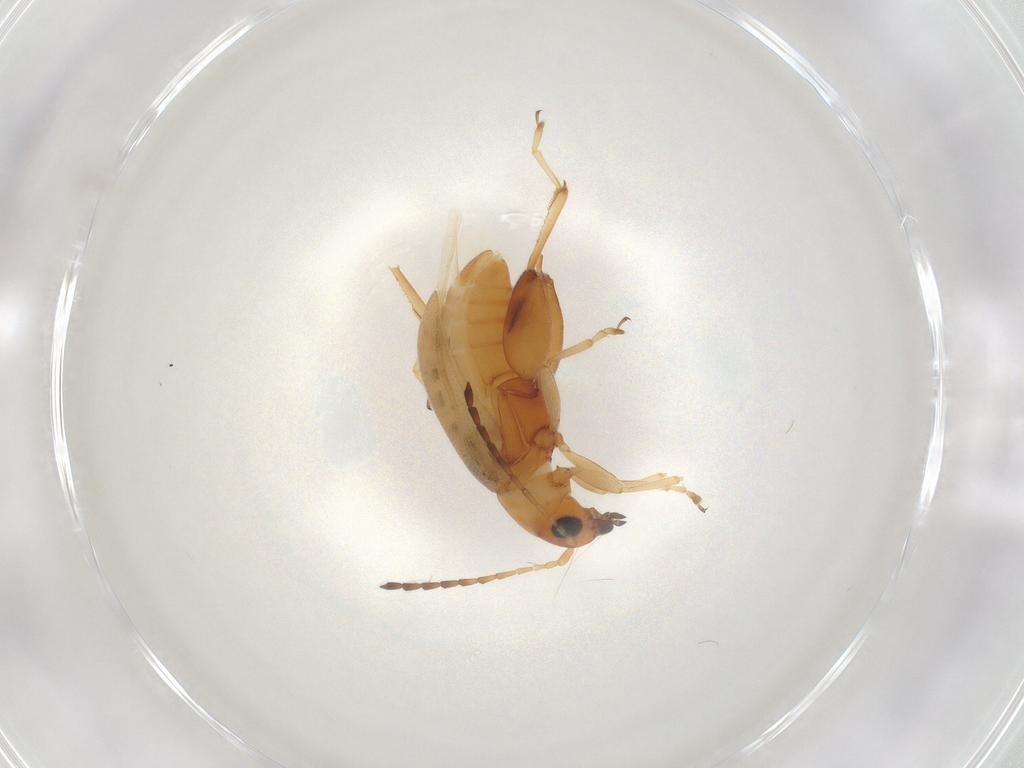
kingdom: Animalia
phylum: Arthropoda
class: Insecta
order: Coleoptera
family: Chrysomelidae
